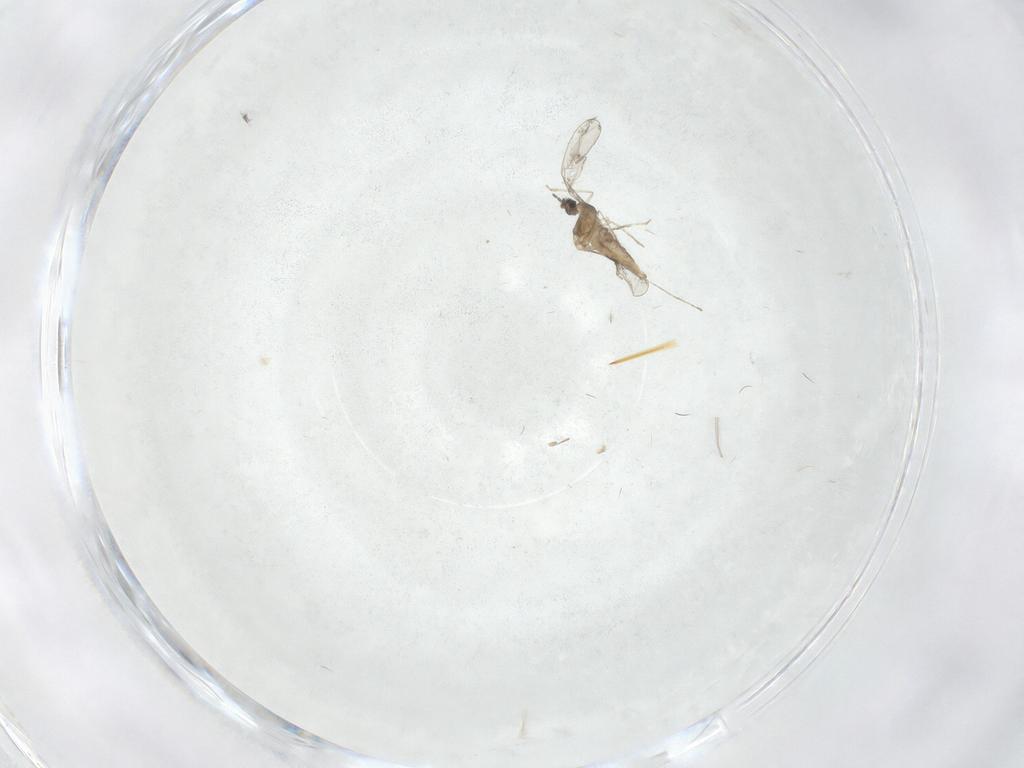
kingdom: Animalia
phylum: Arthropoda
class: Insecta
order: Diptera
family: Cecidomyiidae
